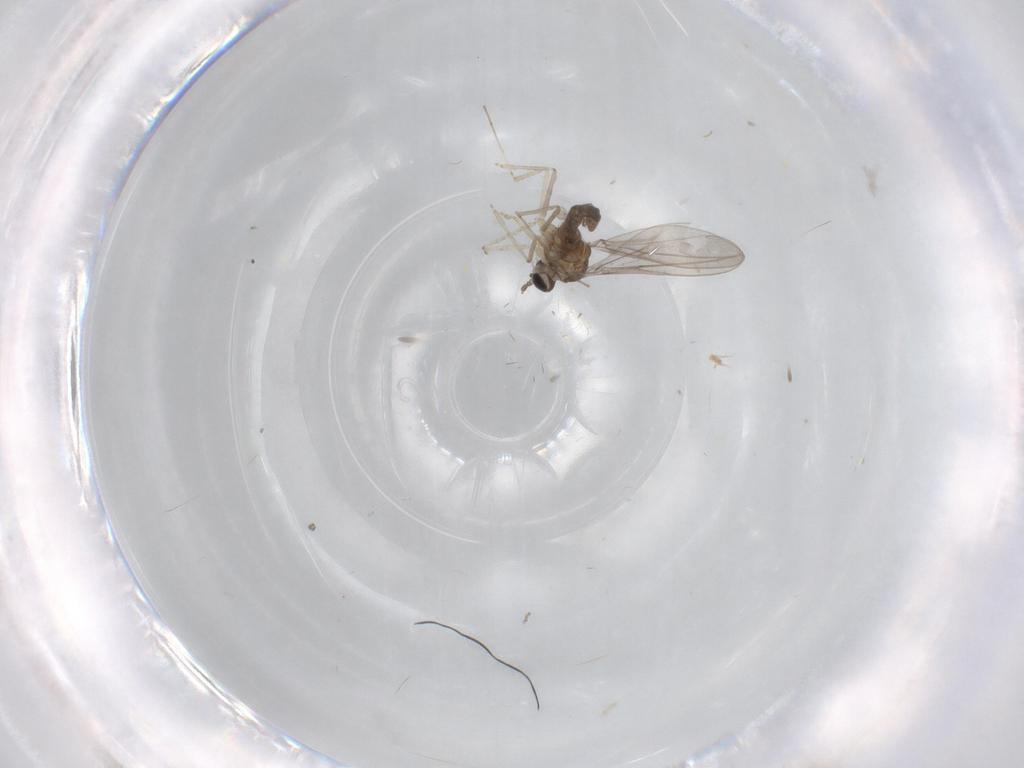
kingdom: Animalia
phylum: Arthropoda
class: Insecta
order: Diptera
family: Cecidomyiidae
